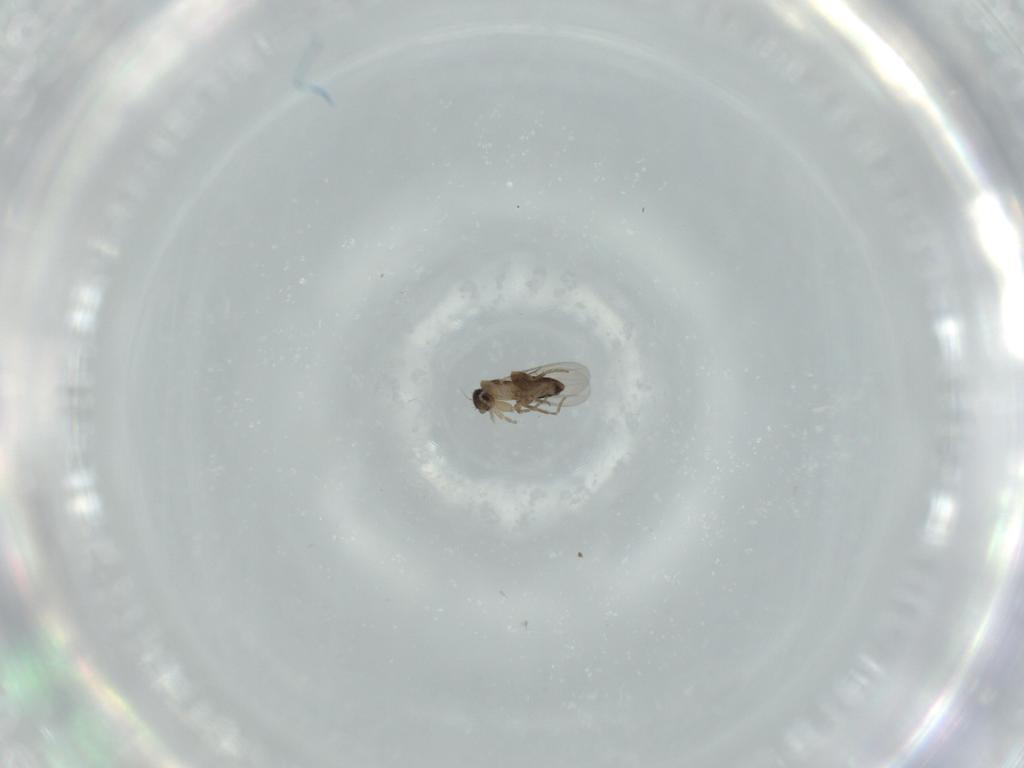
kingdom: Animalia
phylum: Arthropoda
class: Insecta
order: Diptera
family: Phoridae
